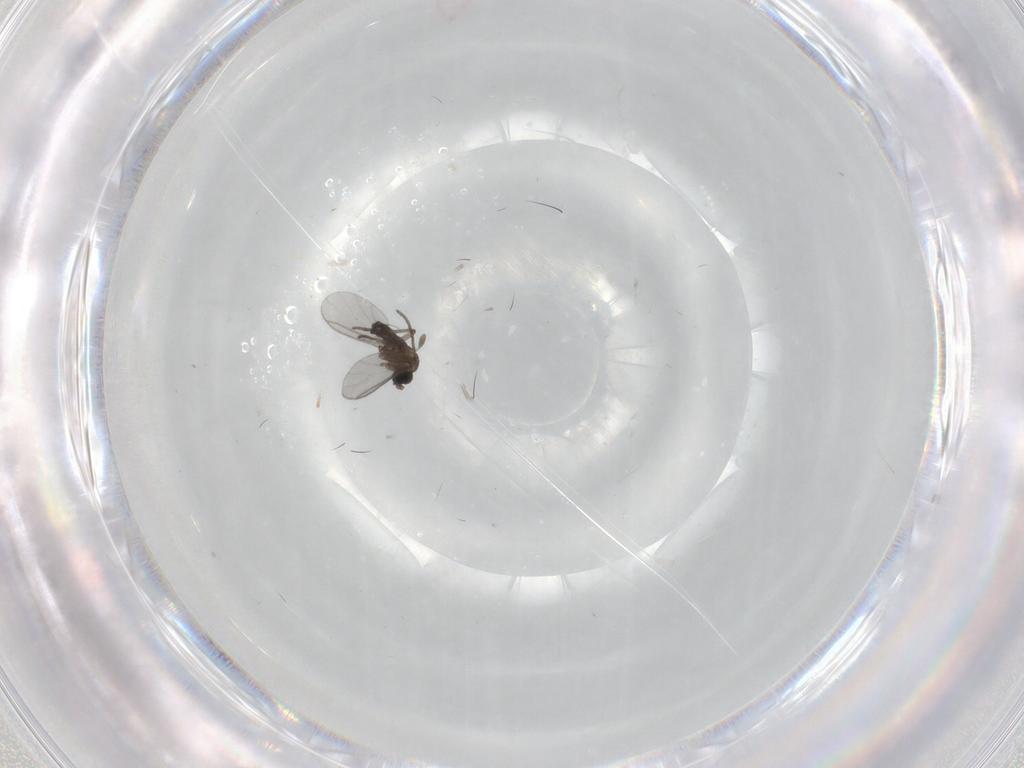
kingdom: Animalia
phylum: Arthropoda
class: Insecta
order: Diptera
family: Sciaridae
